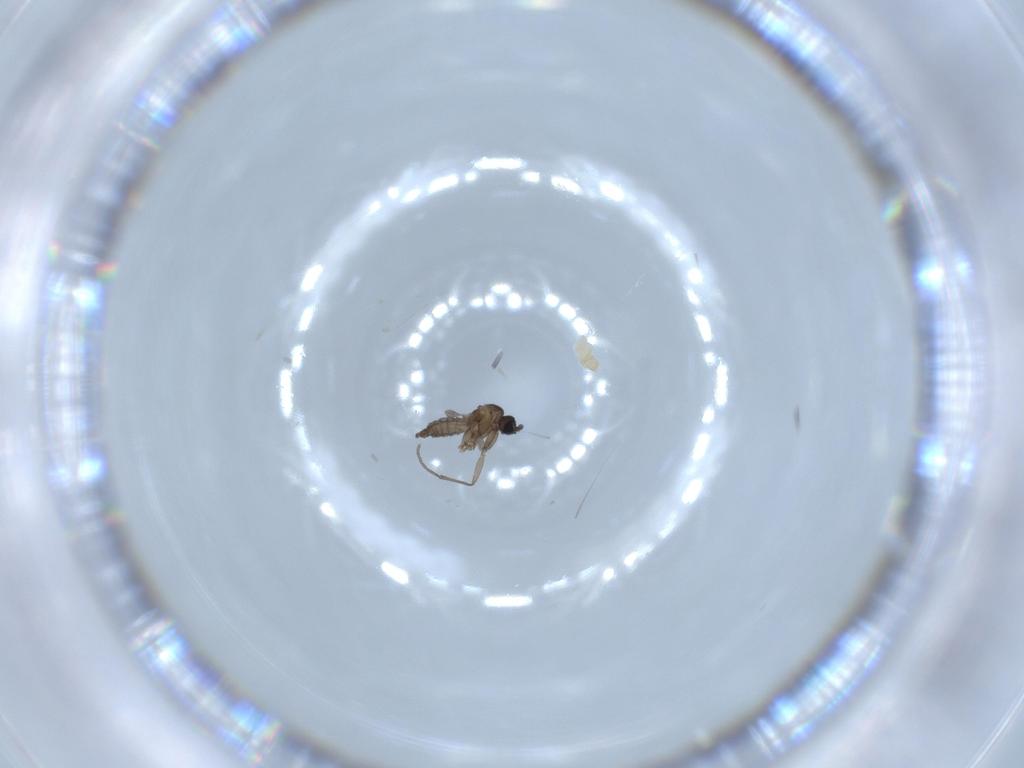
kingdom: Animalia
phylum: Arthropoda
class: Insecta
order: Diptera
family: Sciaridae
